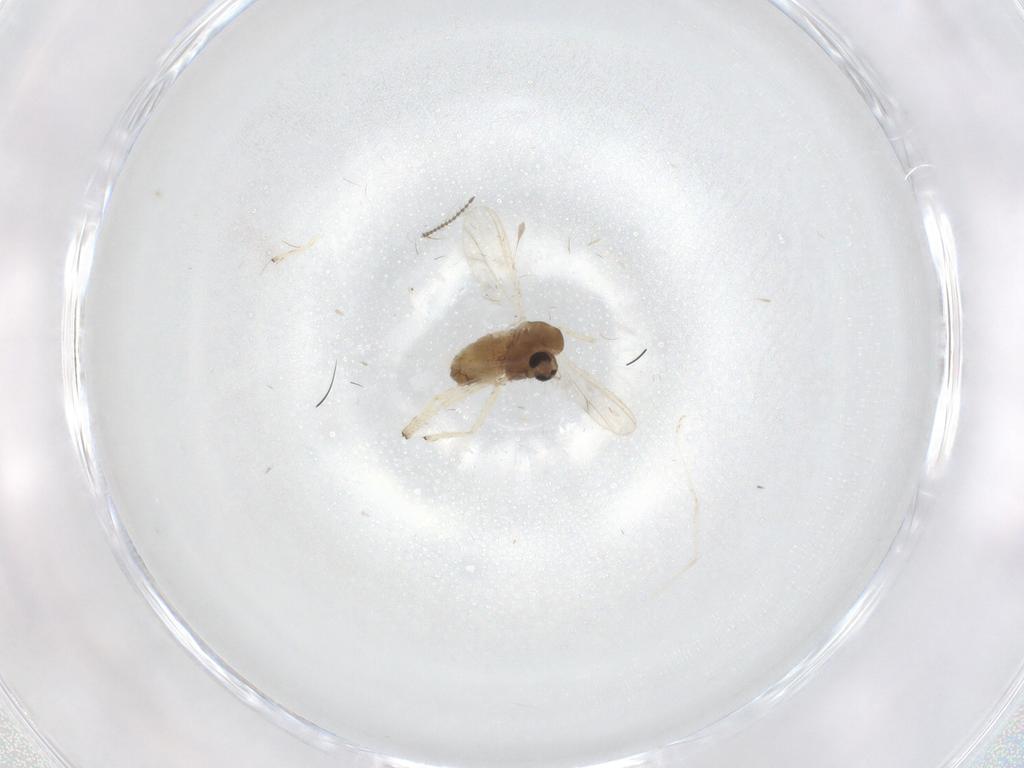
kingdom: Animalia
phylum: Arthropoda
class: Insecta
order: Diptera
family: Ceratopogonidae
